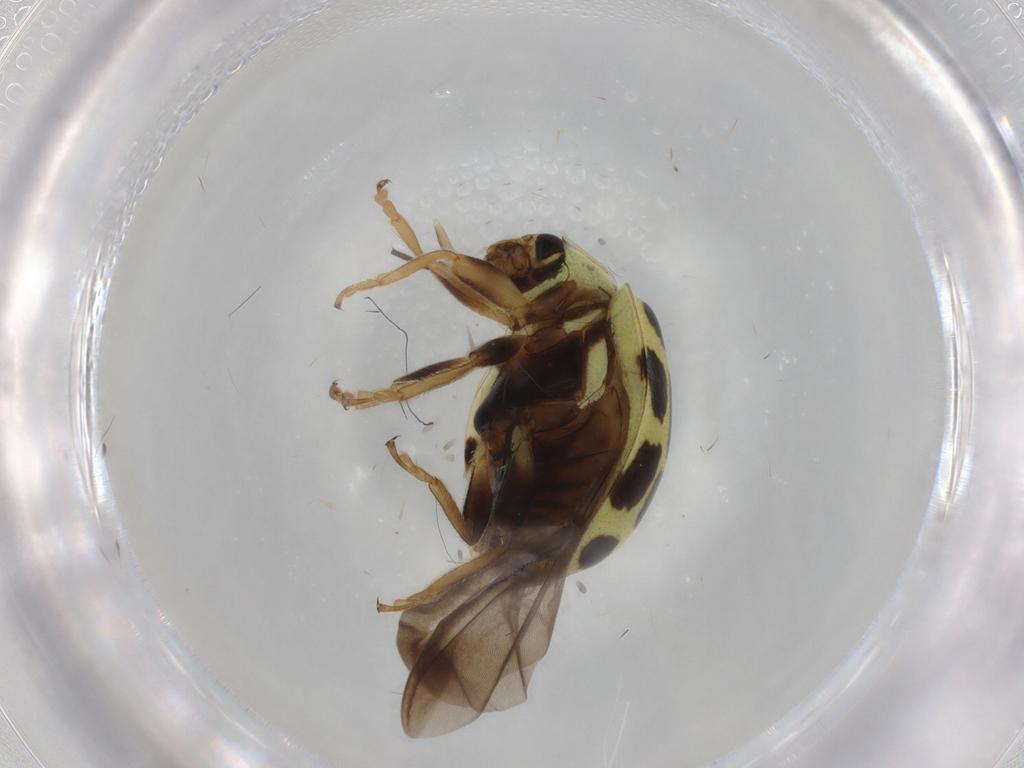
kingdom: Animalia
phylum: Arthropoda
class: Insecta
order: Coleoptera
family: Coccinellidae
